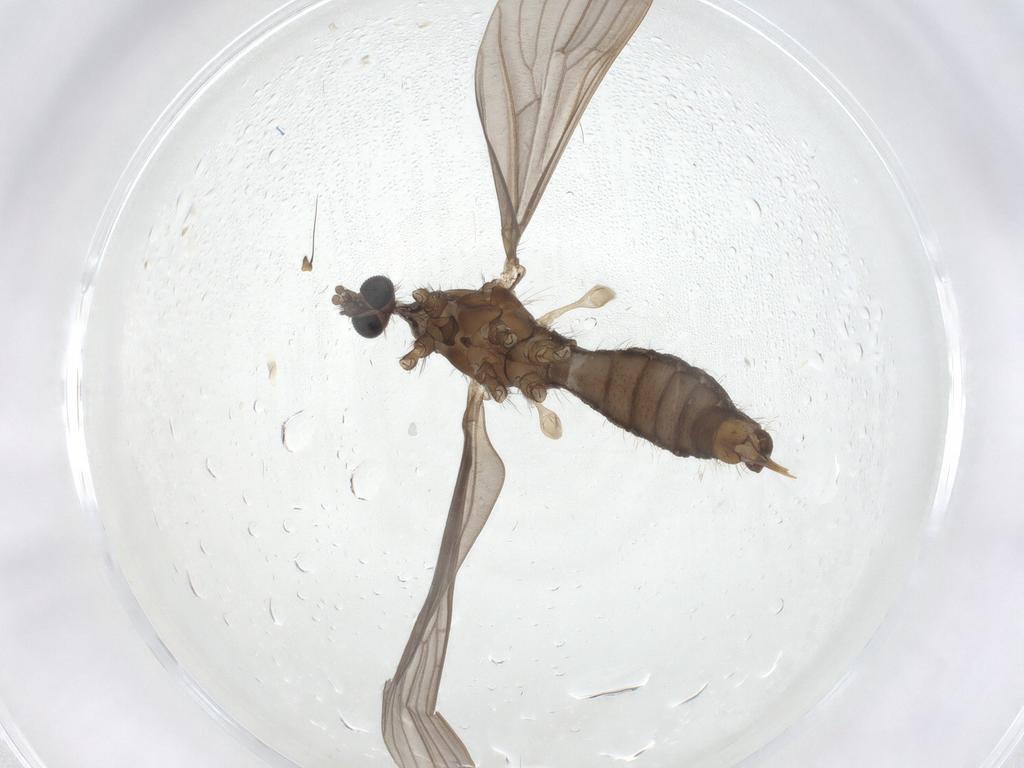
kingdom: Animalia
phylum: Arthropoda
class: Insecta
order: Diptera
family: Limoniidae
